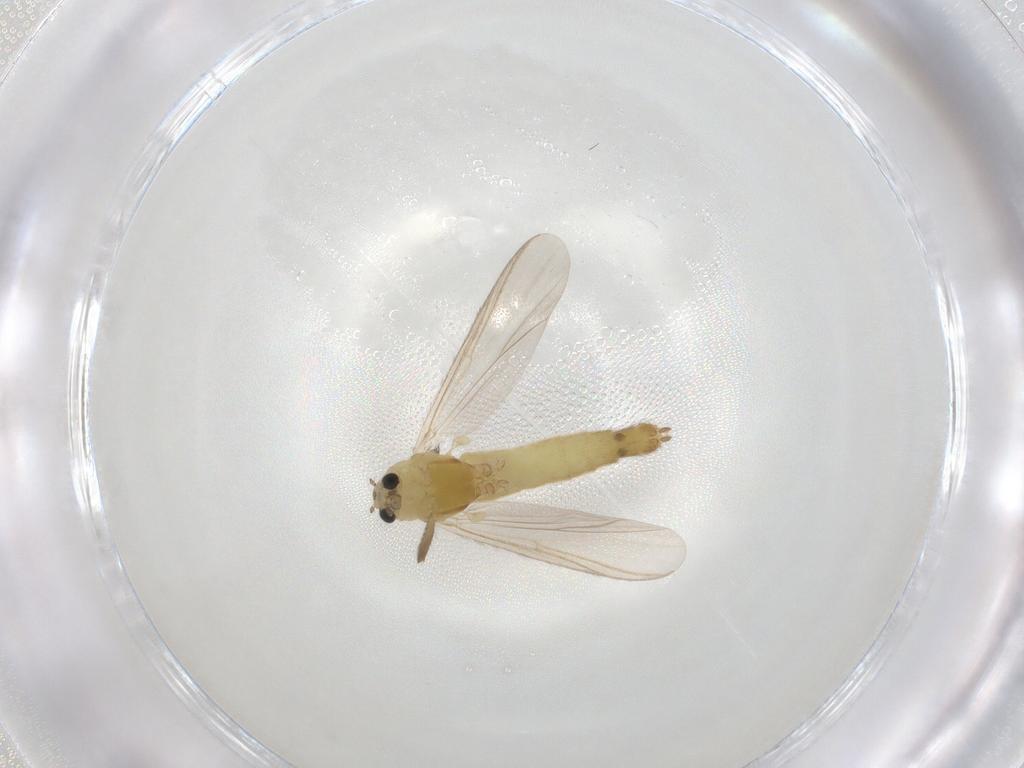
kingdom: Animalia
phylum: Arthropoda
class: Insecta
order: Diptera
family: Chironomidae
